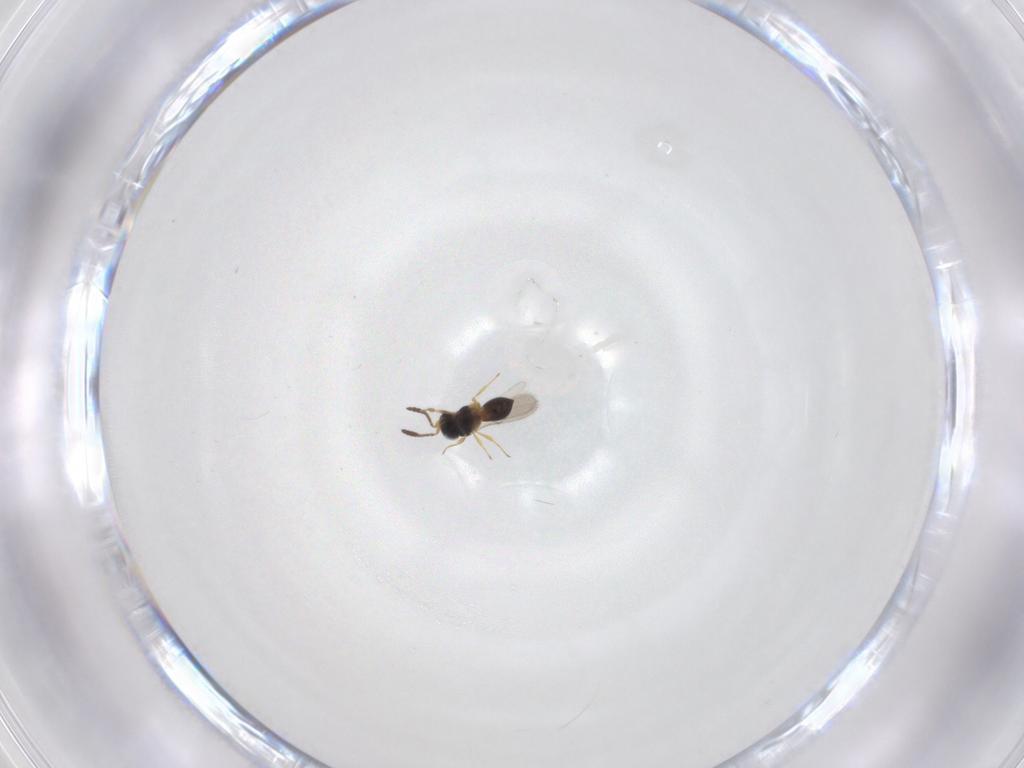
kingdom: Animalia
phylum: Arthropoda
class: Insecta
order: Hymenoptera
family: Scelionidae
